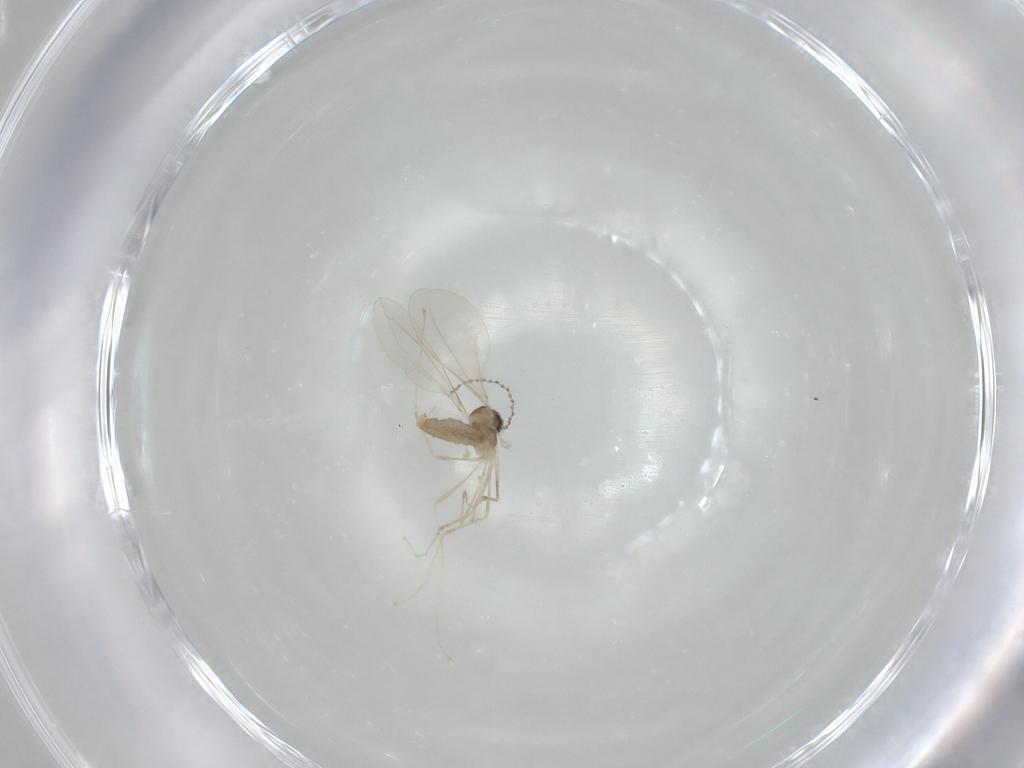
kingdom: Animalia
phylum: Arthropoda
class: Insecta
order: Diptera
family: Cecidomyiidae
